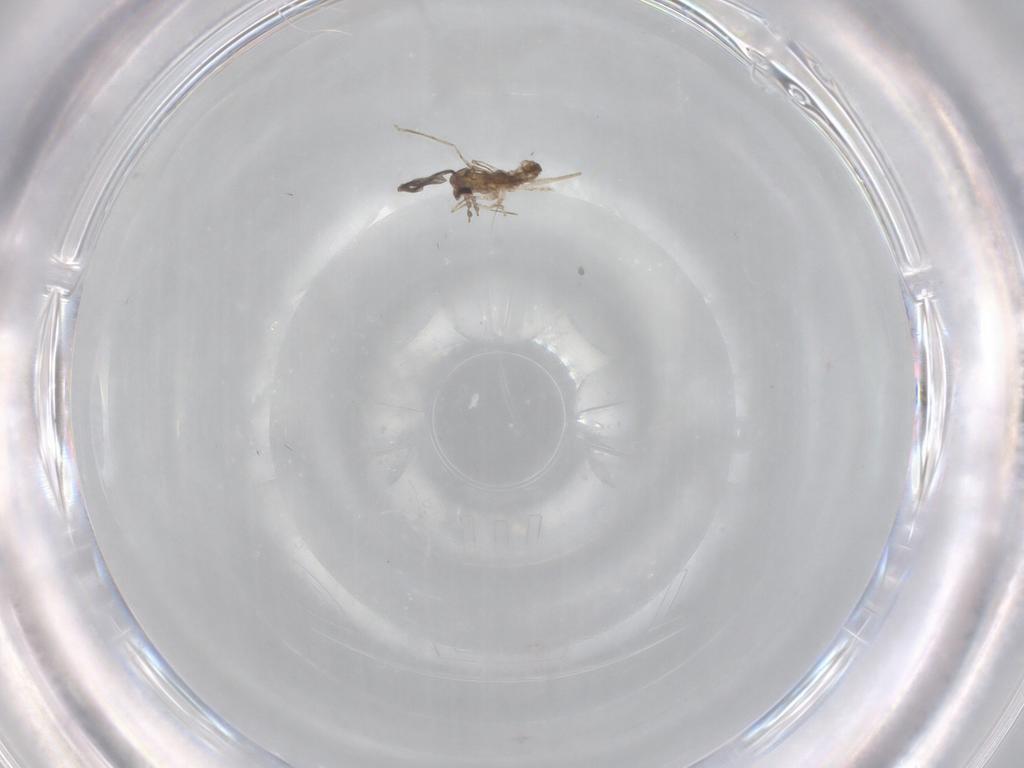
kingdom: Animalia
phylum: Arthropoda
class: Insecta
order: Diptera
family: Cecidomyiidae
